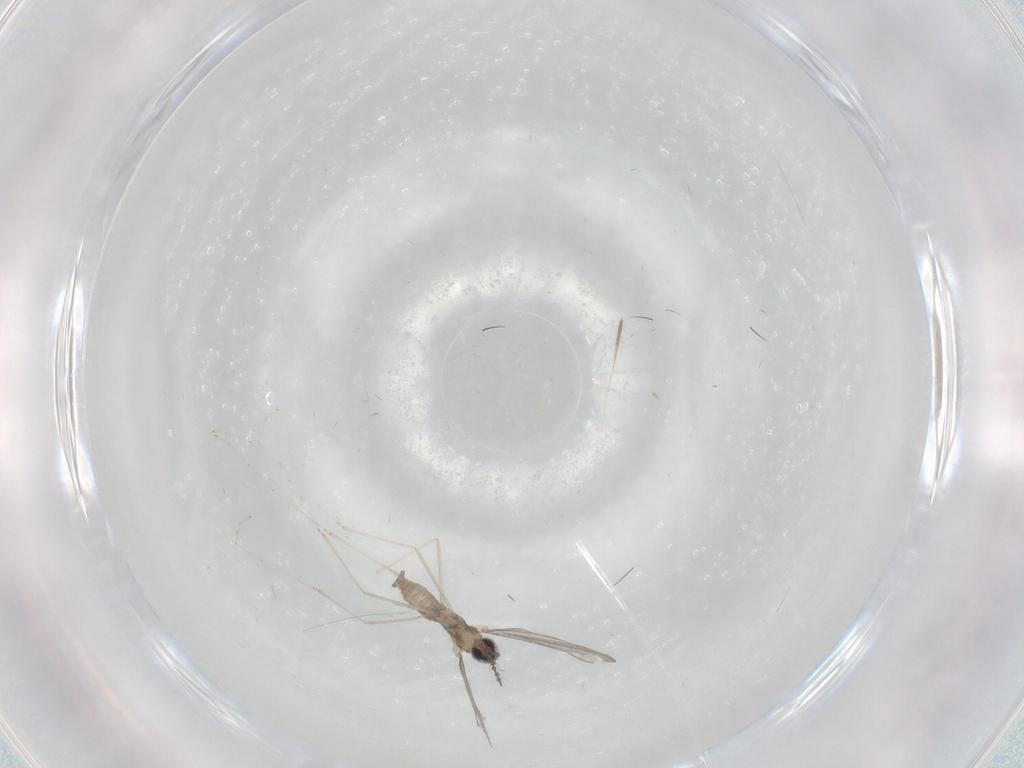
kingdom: Animalia
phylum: Arthropoda
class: Insecta
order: Diptera
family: Cecidomyiidae
